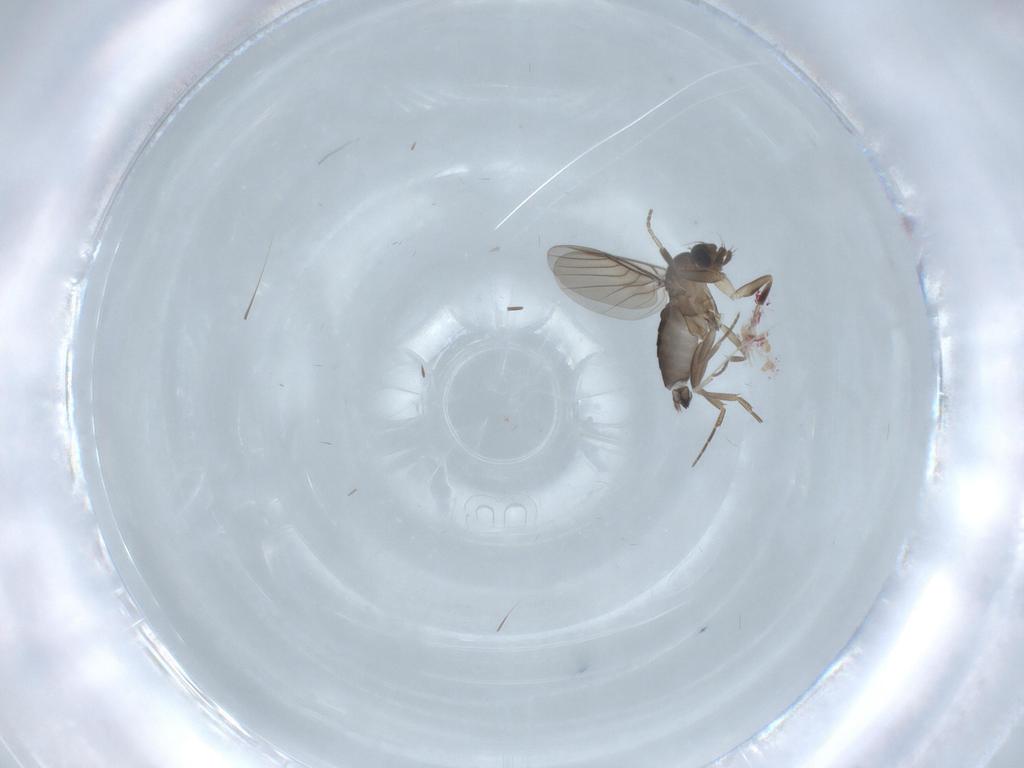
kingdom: Animalia
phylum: Arthropoda
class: Insecta
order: Diptera
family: Phoridae
